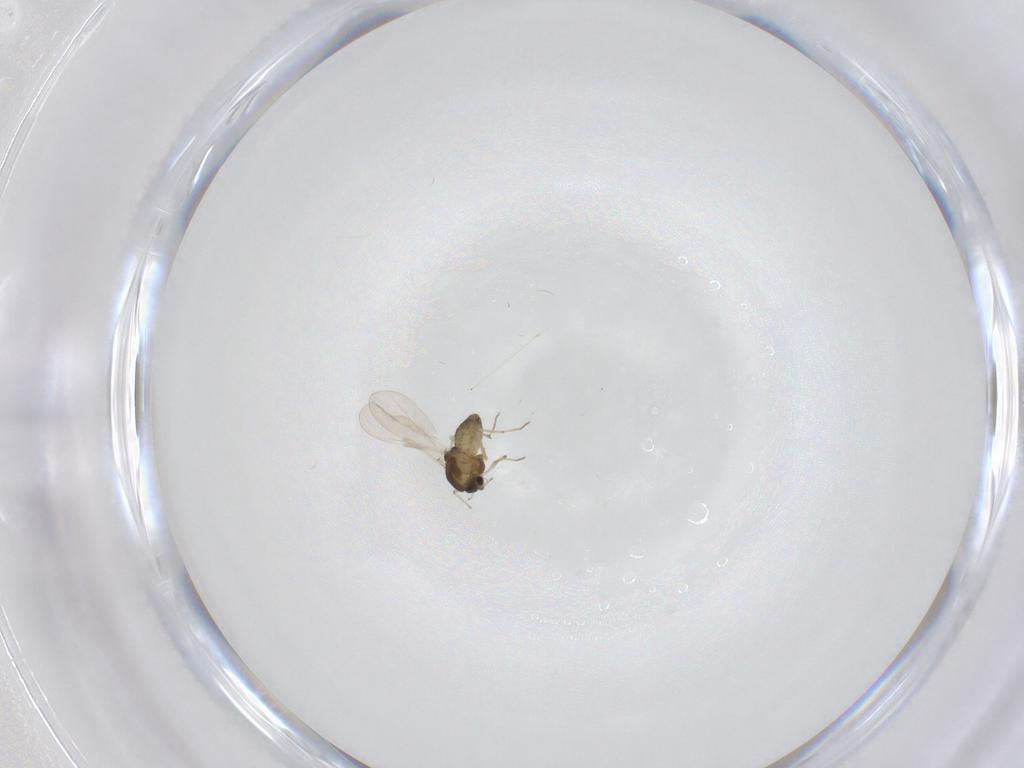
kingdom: Animalia
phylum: Arthropoda
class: Insecta
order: Diptera
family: Chironomidae
